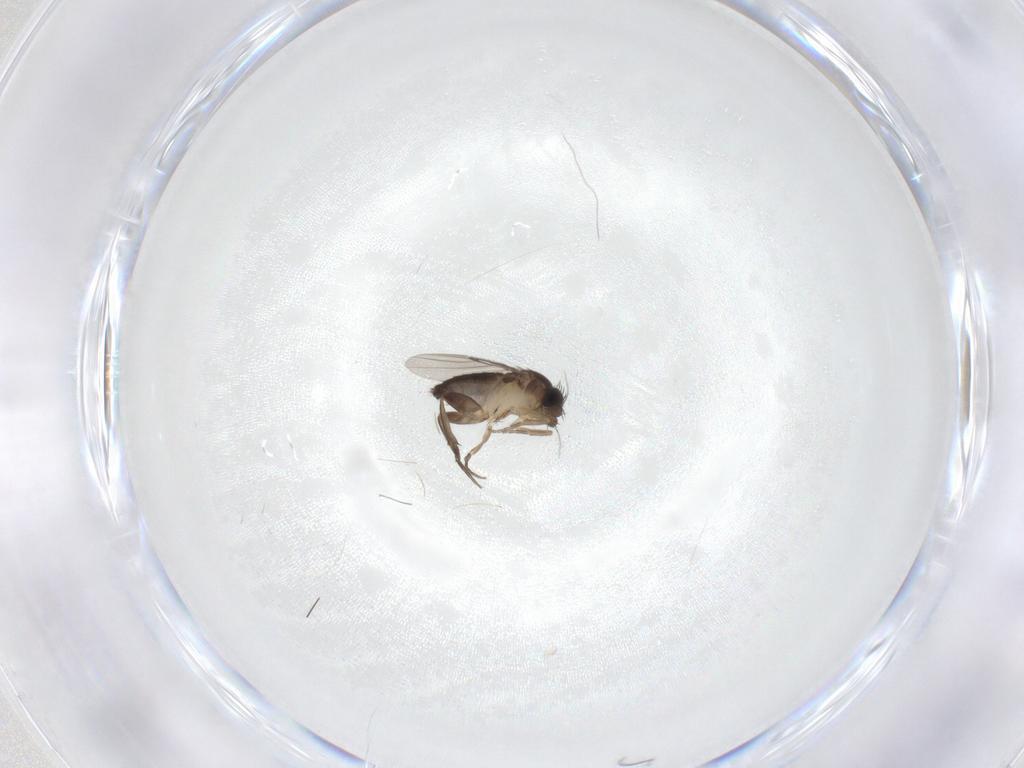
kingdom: Animalia
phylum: Arthropoda
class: Insecta
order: Diptera
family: Phoridae
